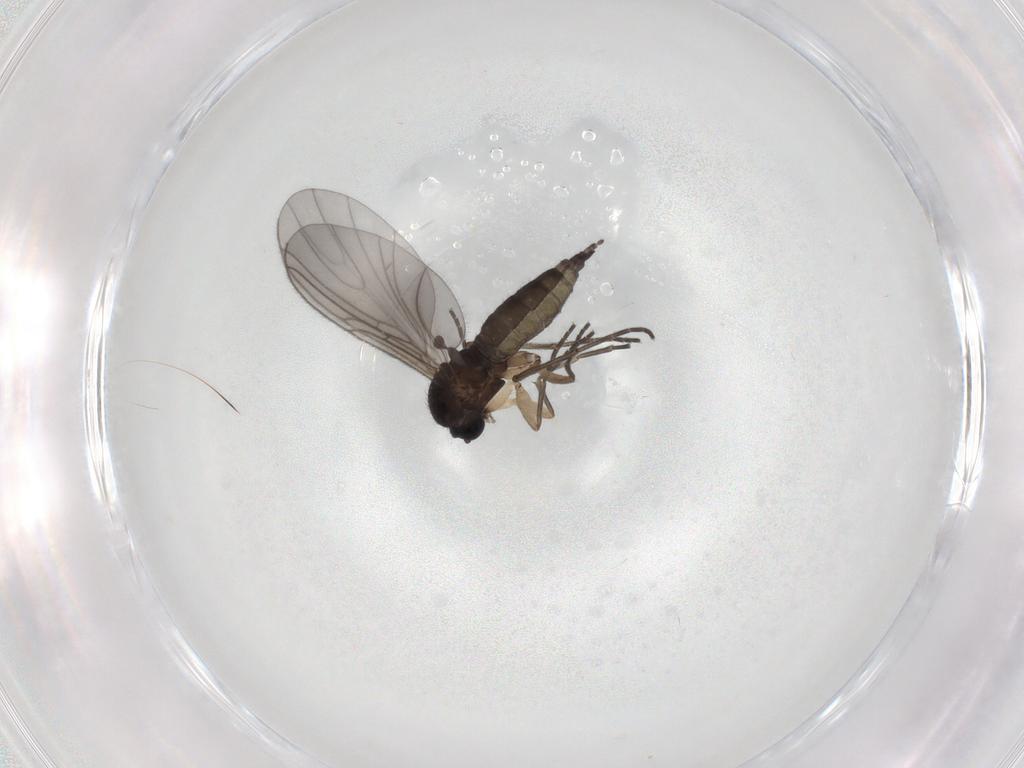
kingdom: Animalia
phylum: Arthropoda
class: Insecta
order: Diptera
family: Sciaridae
